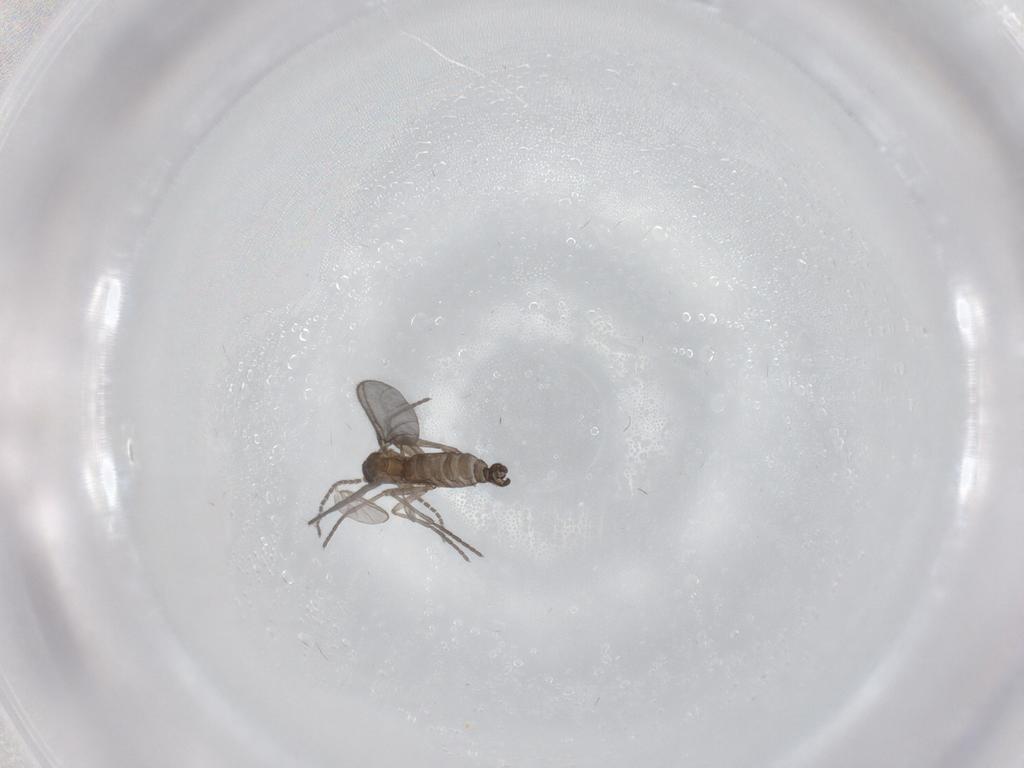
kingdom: Animalia
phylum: Arthropoda
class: Insecta
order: Diptera
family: Sciaridae
